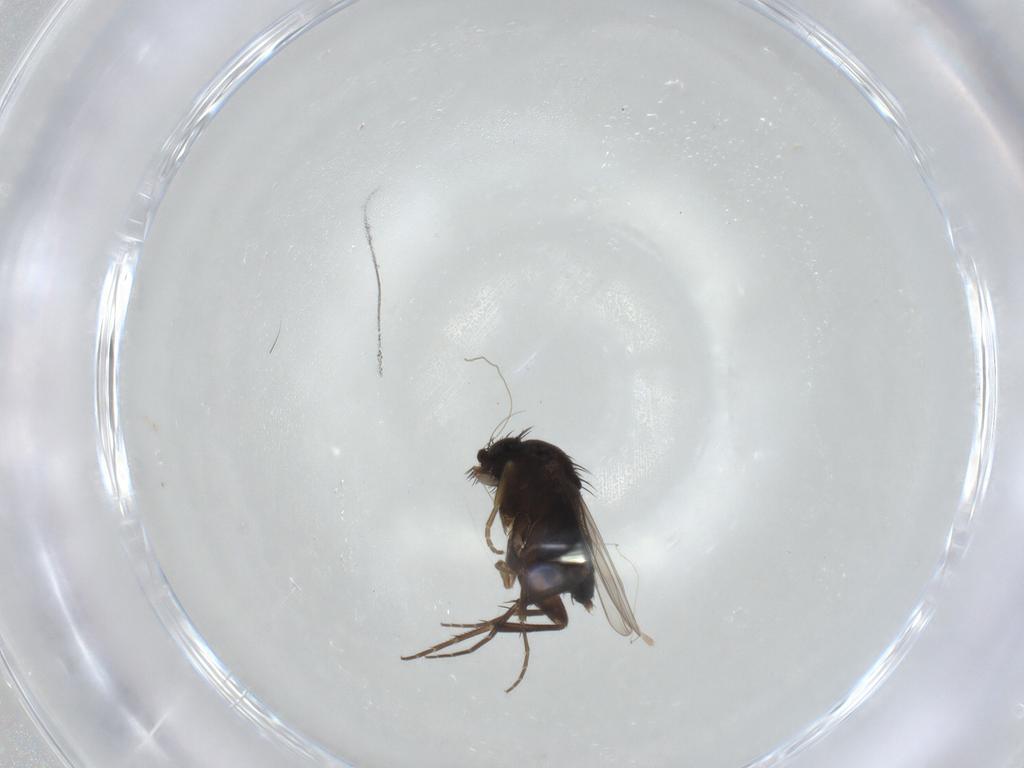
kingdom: Animalia
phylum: Arthropoda
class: Insecta
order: Diptera
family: Phoridae
